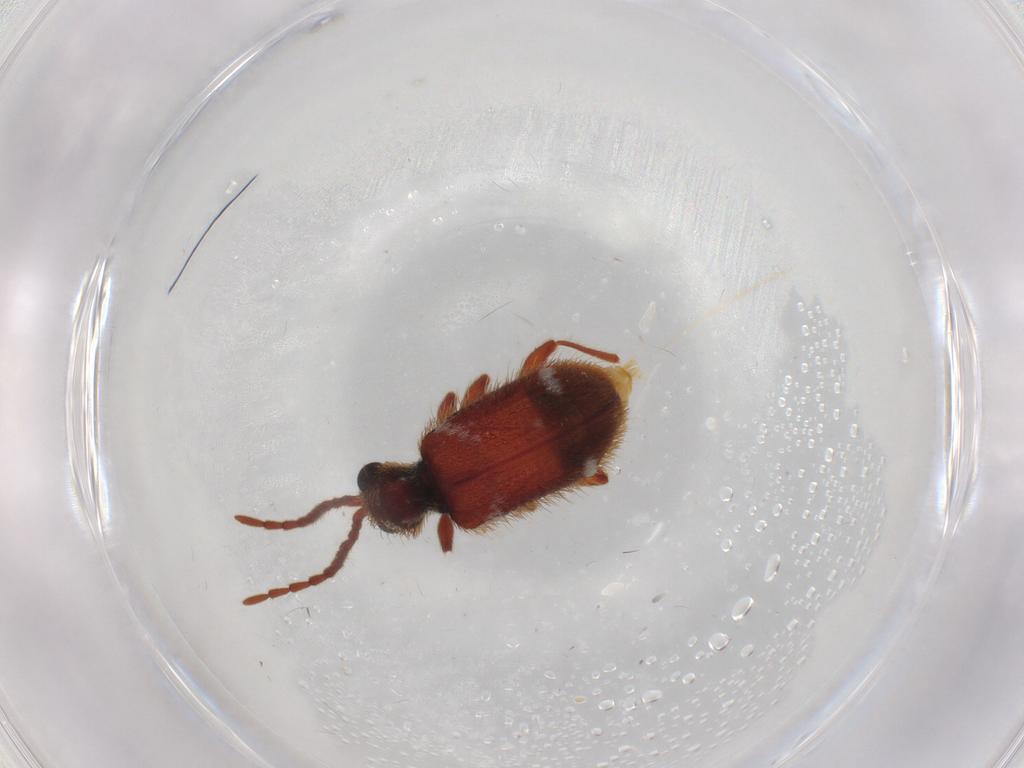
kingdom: Animalia
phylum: Arthropoda
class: Insecta
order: Coleoptera
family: Ptinidae
